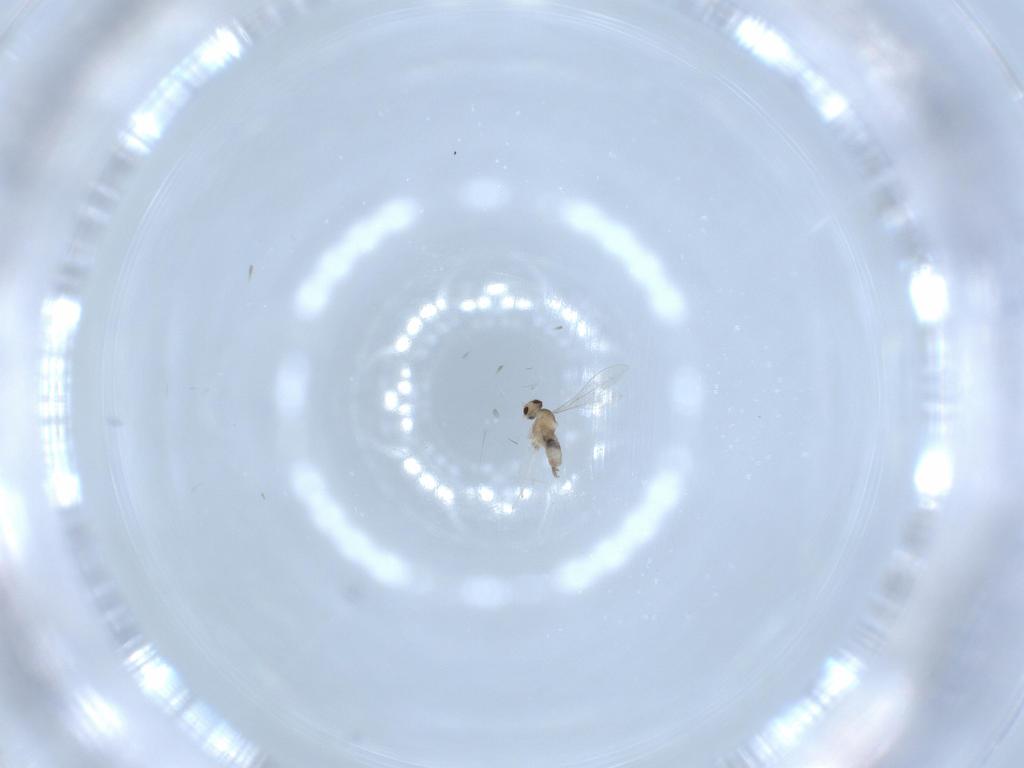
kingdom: Animalia
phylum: Arthropoda
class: Insecta
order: Diptera
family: Cecidomyiidae
